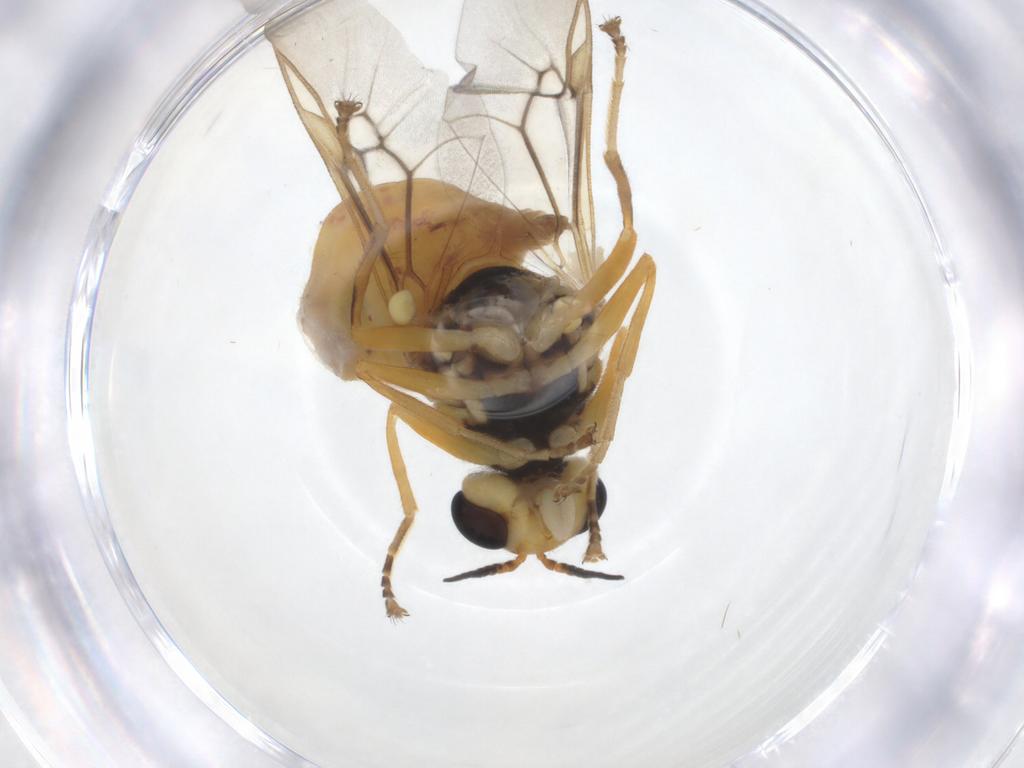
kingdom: Animalia
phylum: Arthropoda
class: Insecta
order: Diptera
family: Stratiomyidae
